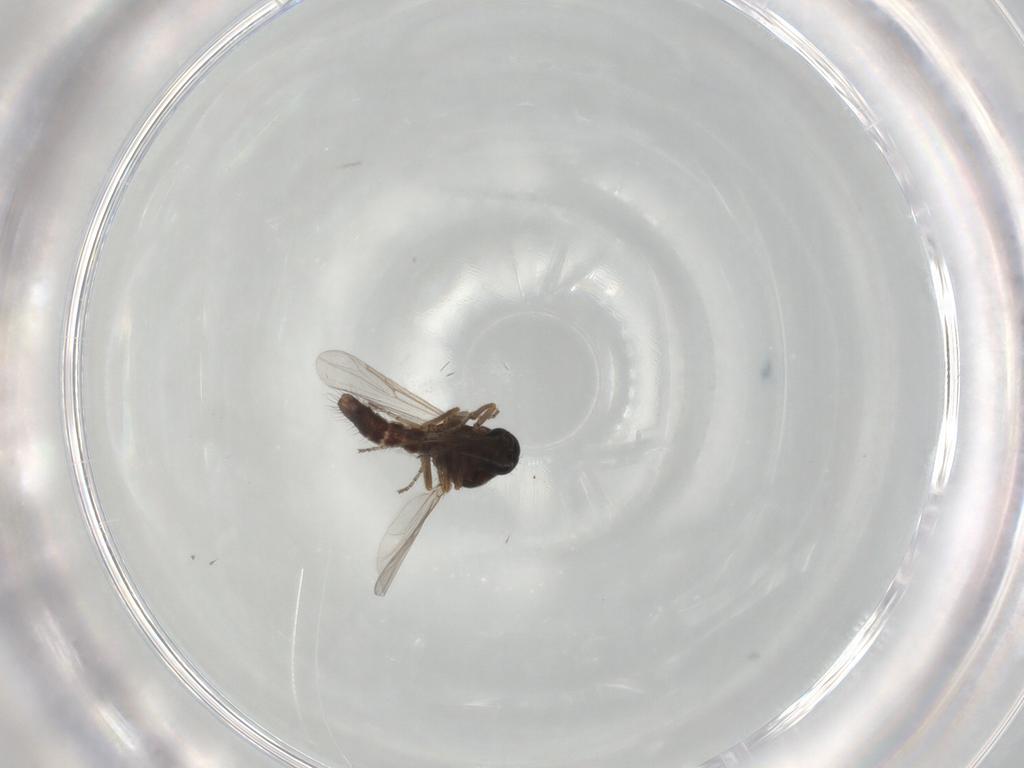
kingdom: Animalia
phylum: Arthropoda
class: Insecta
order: Diptera
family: Ceratopogonidae
